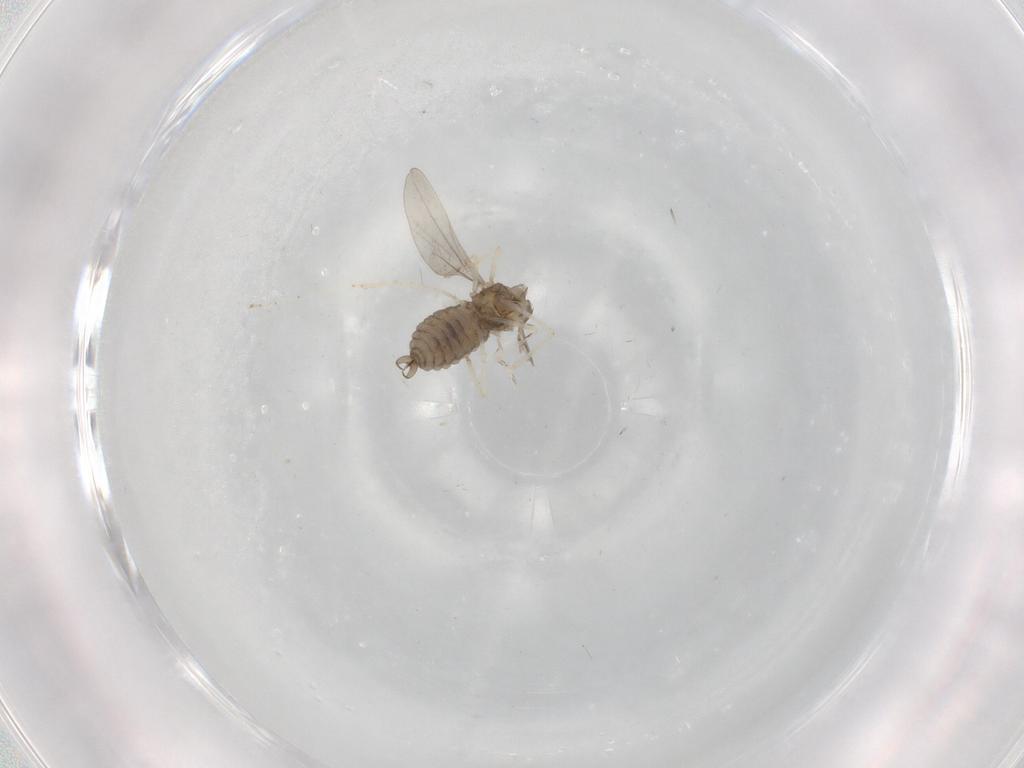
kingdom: Animalia
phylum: Arthropoda
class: Insecta
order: Diptera
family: Cecidomyiidae
